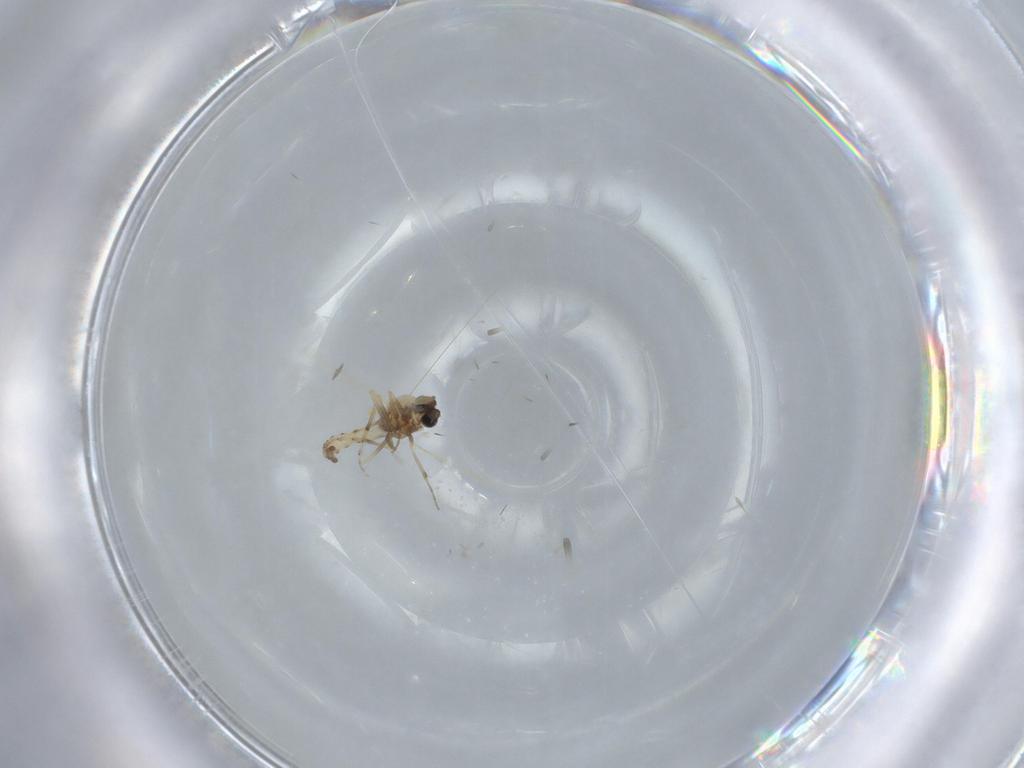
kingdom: Animalia
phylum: Arthropoda
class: Insecta
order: Diptera
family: Ceratopogonidae
